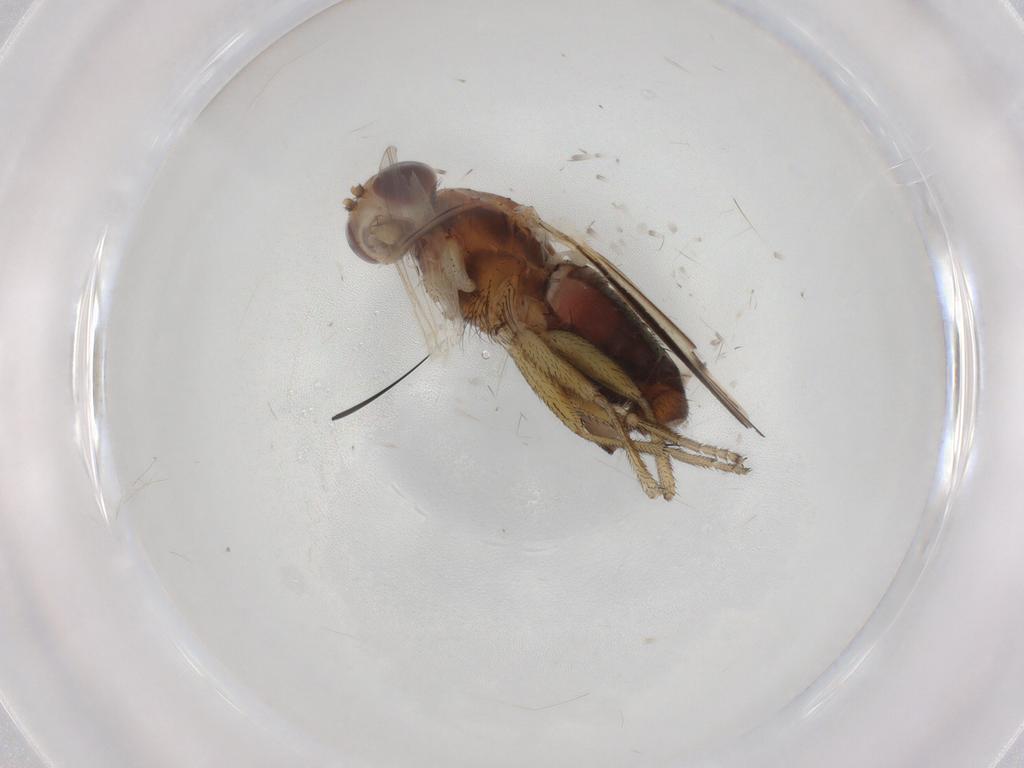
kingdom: Animalia
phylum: Arthropoda
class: Insecta
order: Diptera
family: Heleomyzidae
